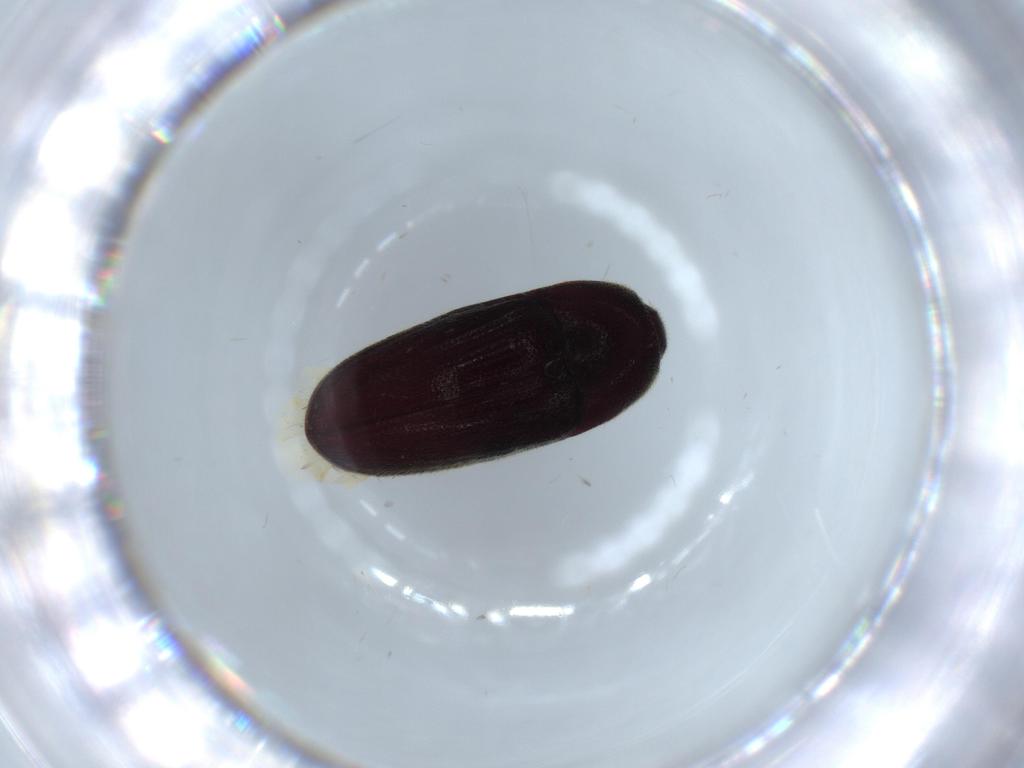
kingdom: Animalia
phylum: Arthropoda
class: Insecta
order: Coleoptera
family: Throscidae
